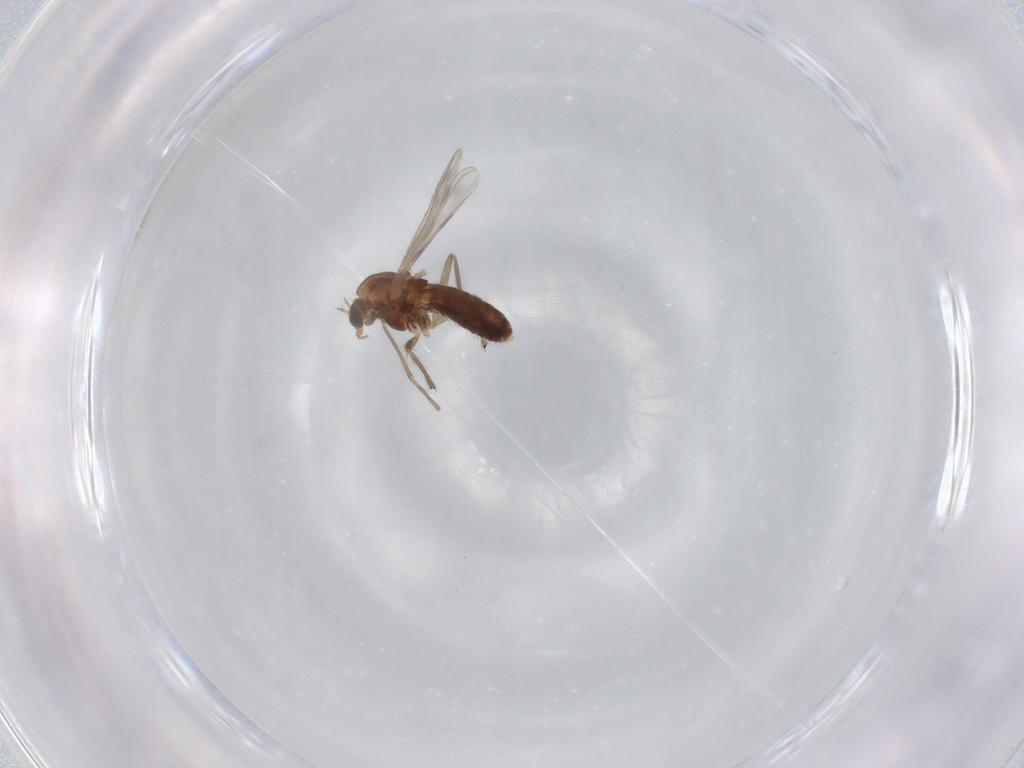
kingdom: Animalia
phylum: Arthropoda
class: Insecta
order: Diptera
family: Chironomidae
